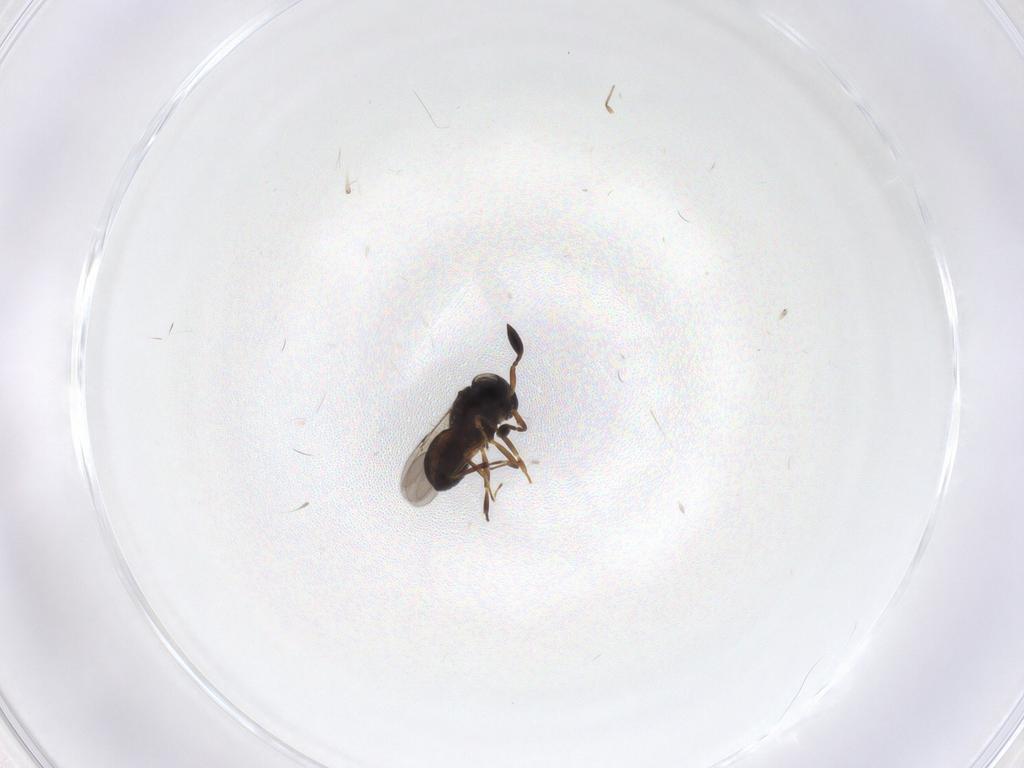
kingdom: Animalia
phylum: Arthropoda
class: Insecta
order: Hymenoptera
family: Scelionidae
